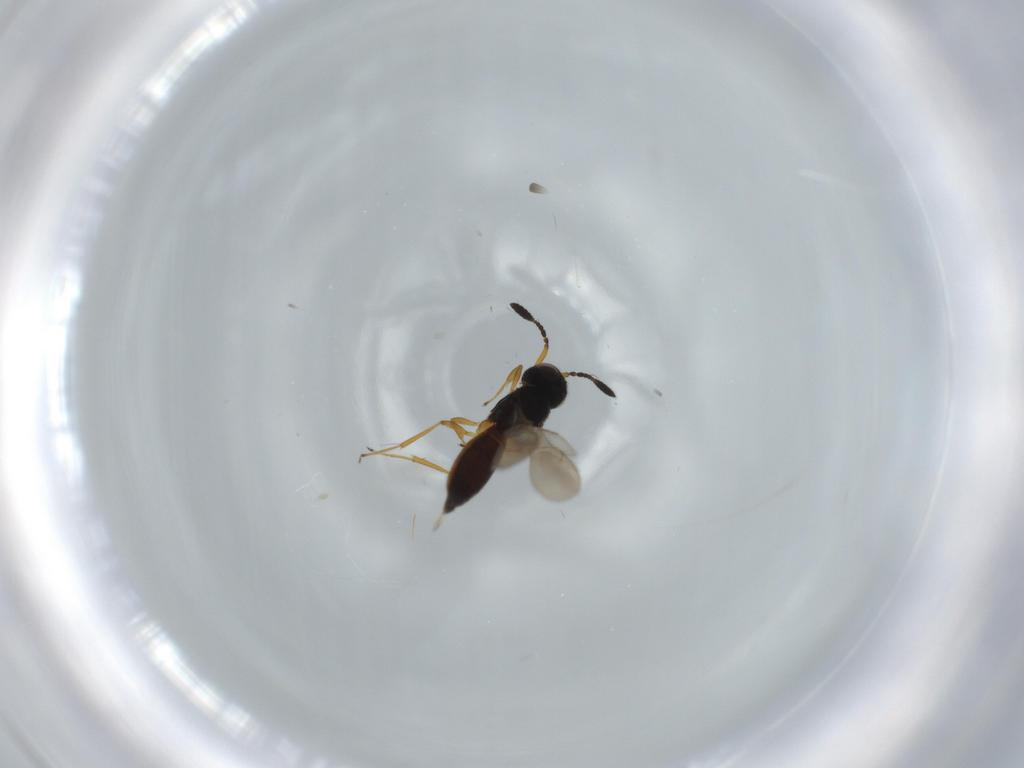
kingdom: Animalia
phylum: Arthropoda
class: Insecta
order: Hymenoptera
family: Scelionidae
